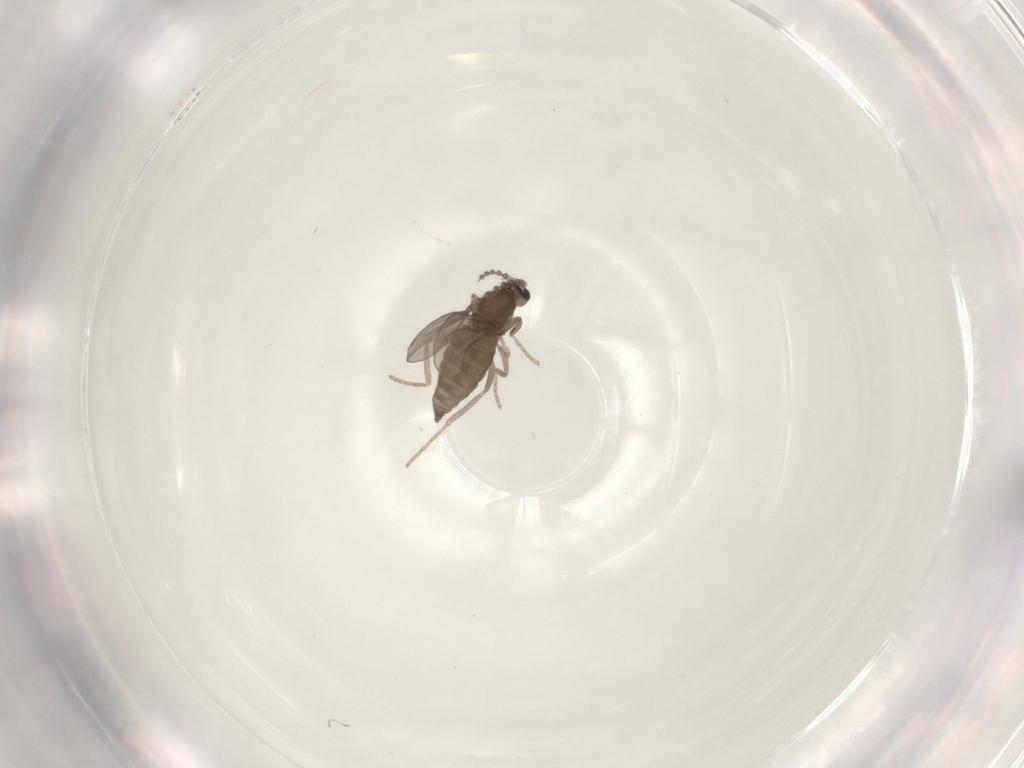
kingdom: Animalia
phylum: Arthropoda
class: Insecta
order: Diptera
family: Cecidomyiidae
